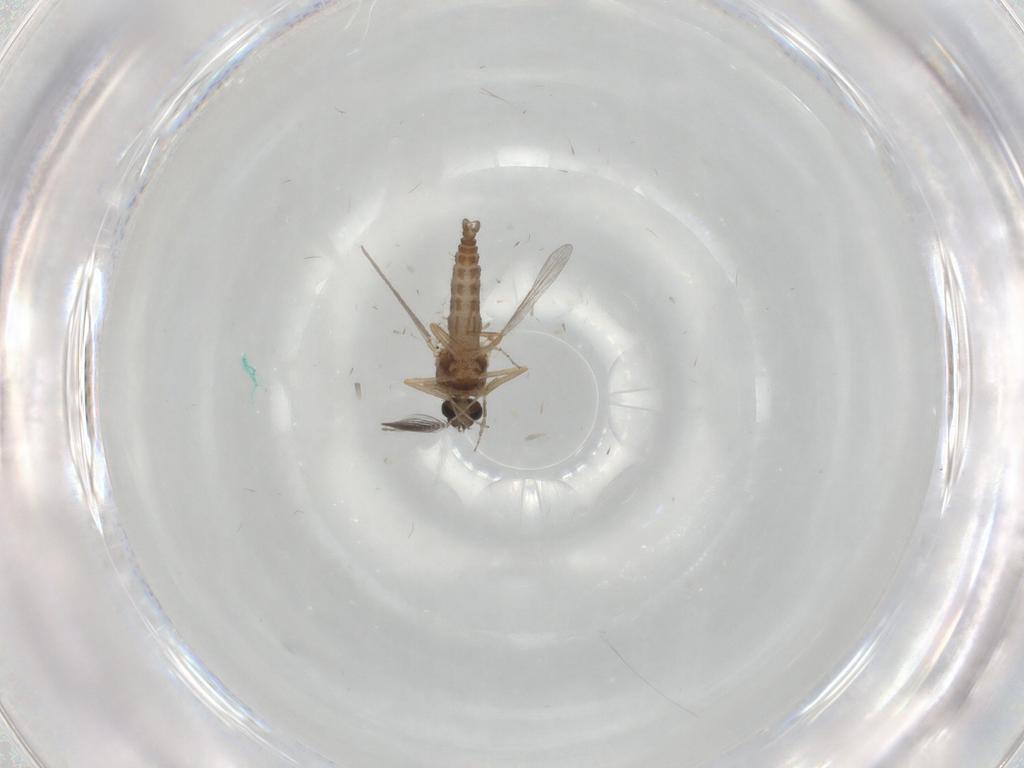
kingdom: Animalia
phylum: Arthropoda
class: Insecta
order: Diptera
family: Ceratopogonidae
